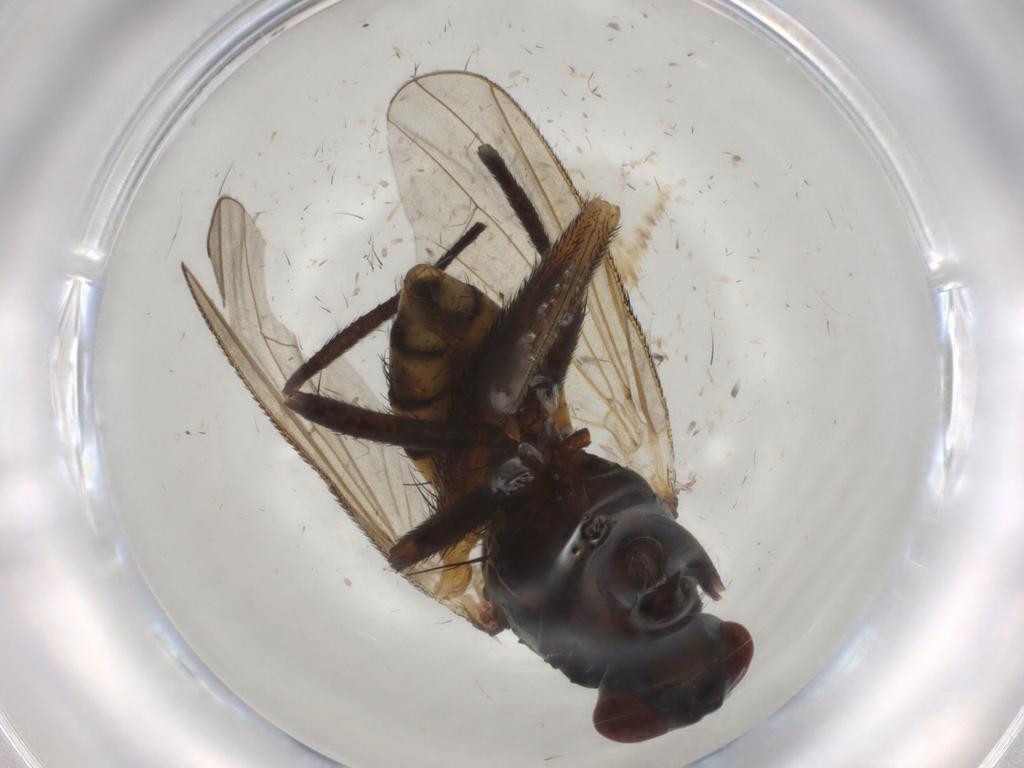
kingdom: Animalia
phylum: Arthropoda
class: Insecta
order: Diptera
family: Anthomyiidae
